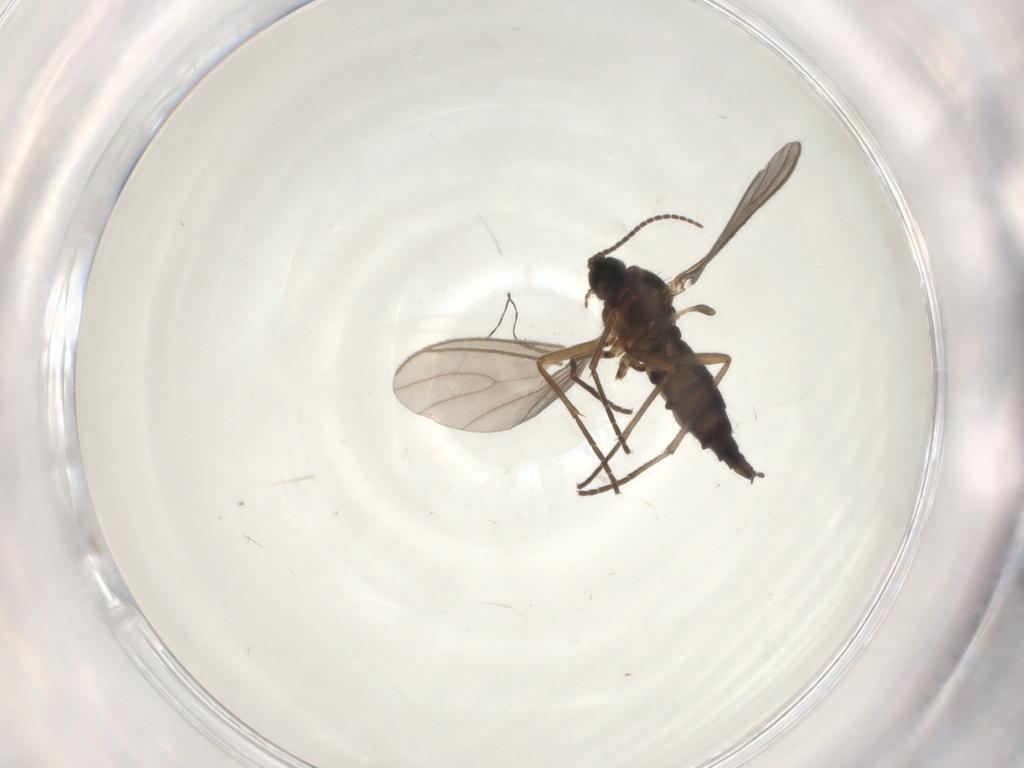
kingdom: Animalia
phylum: Arthropoda
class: Insecta
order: Diptera
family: Sciaridae
